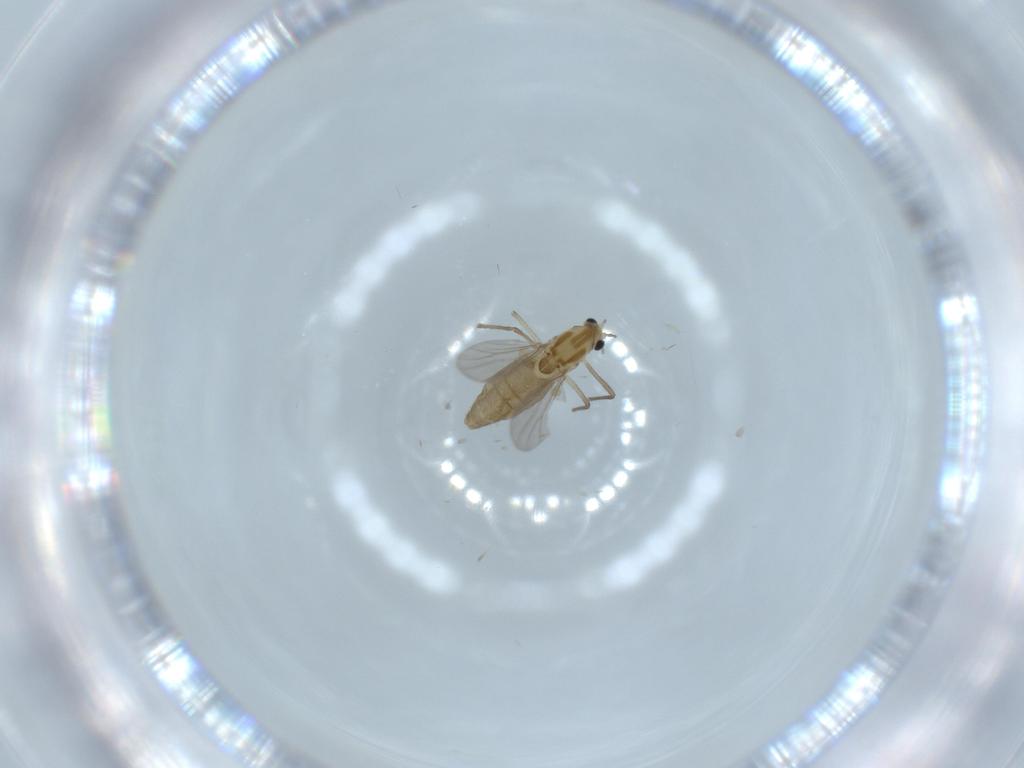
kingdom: Animalia
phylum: Arthropoda
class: Insecta
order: Diptera
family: Chironomidae
